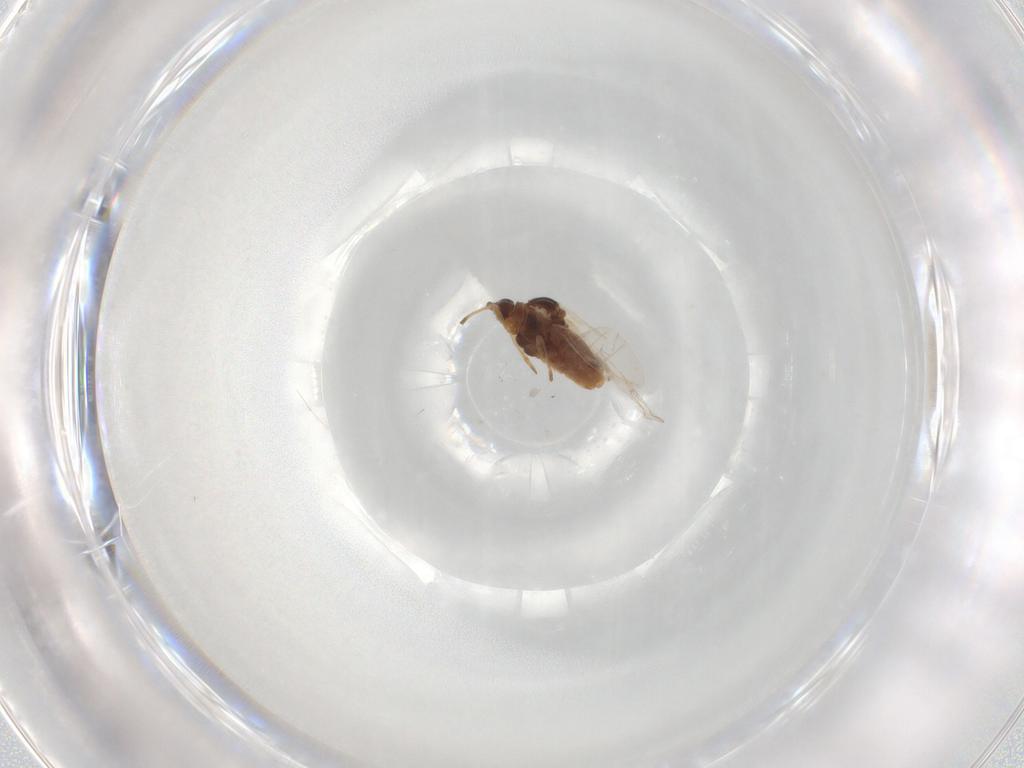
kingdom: Animalia
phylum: Arthropoda
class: Insecta
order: Hemiptera
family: Aphididae
